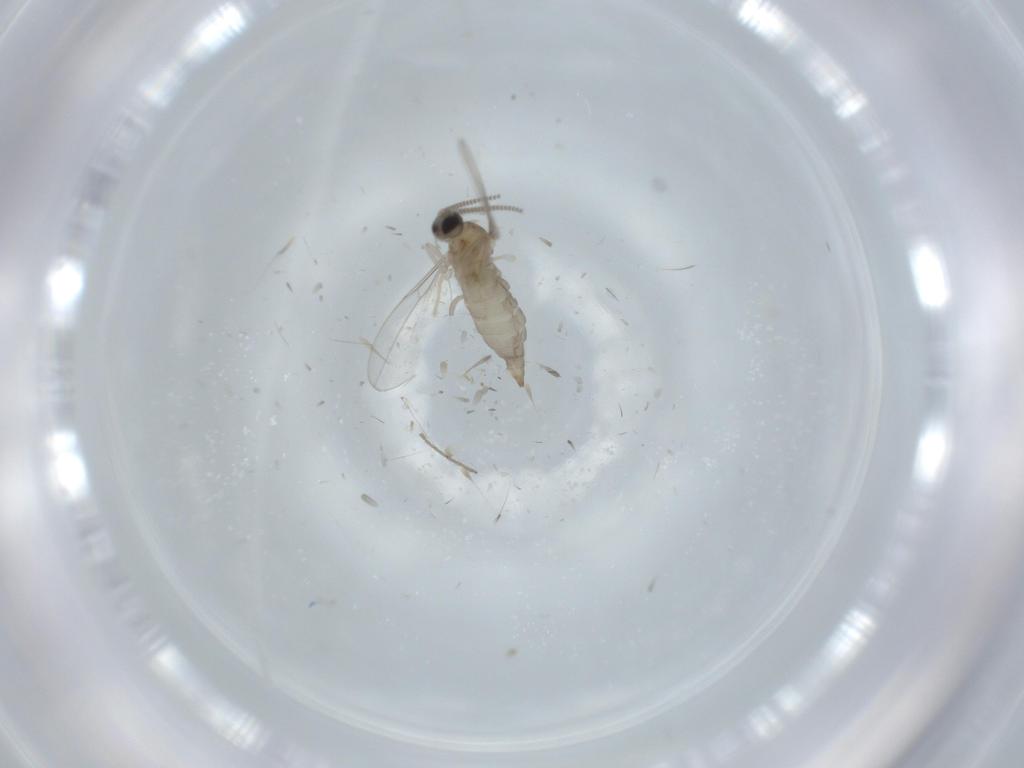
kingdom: Animalia
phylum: Arthropoda
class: Insecta
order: Diptera
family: Cecidomyiidae
